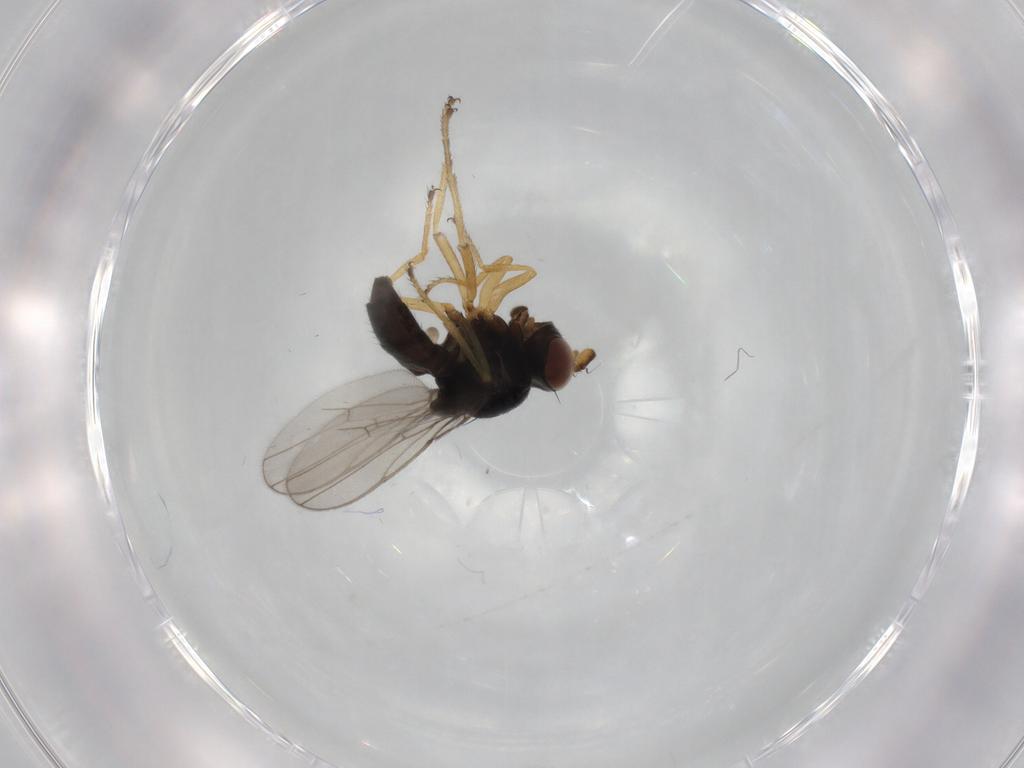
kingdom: Animalia
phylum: Arthropoda
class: Insecta
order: Diptera
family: Ephydridae
